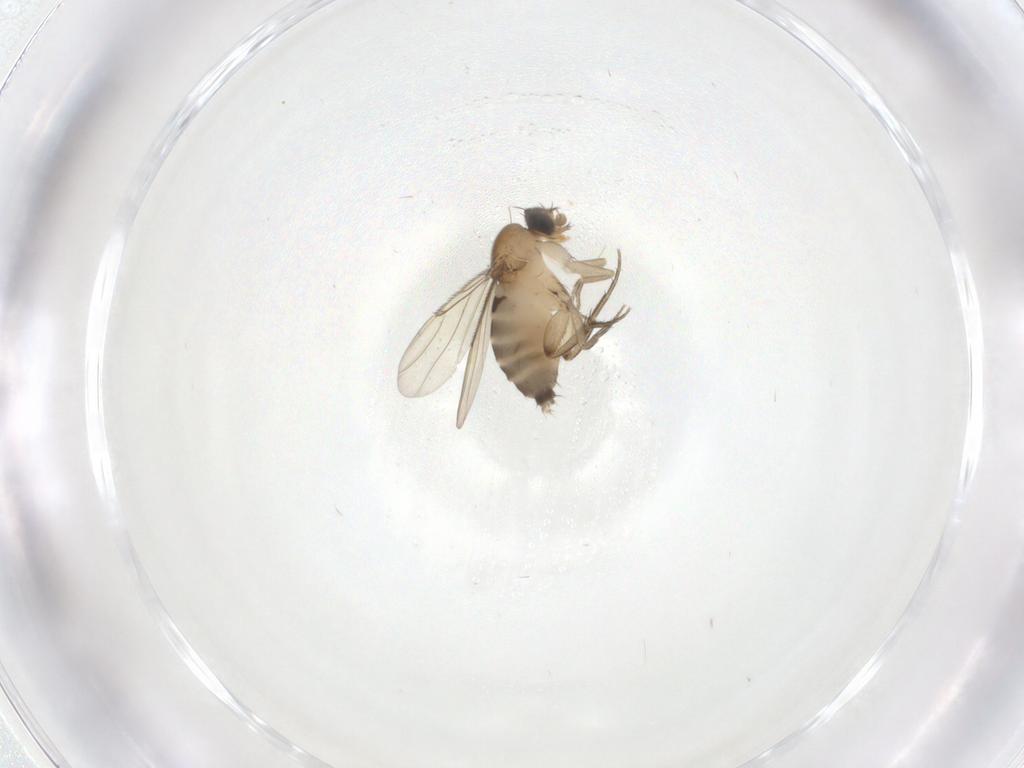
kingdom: Animalia
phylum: Arthropoda
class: Insecta
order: Diptera
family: Phoridae
